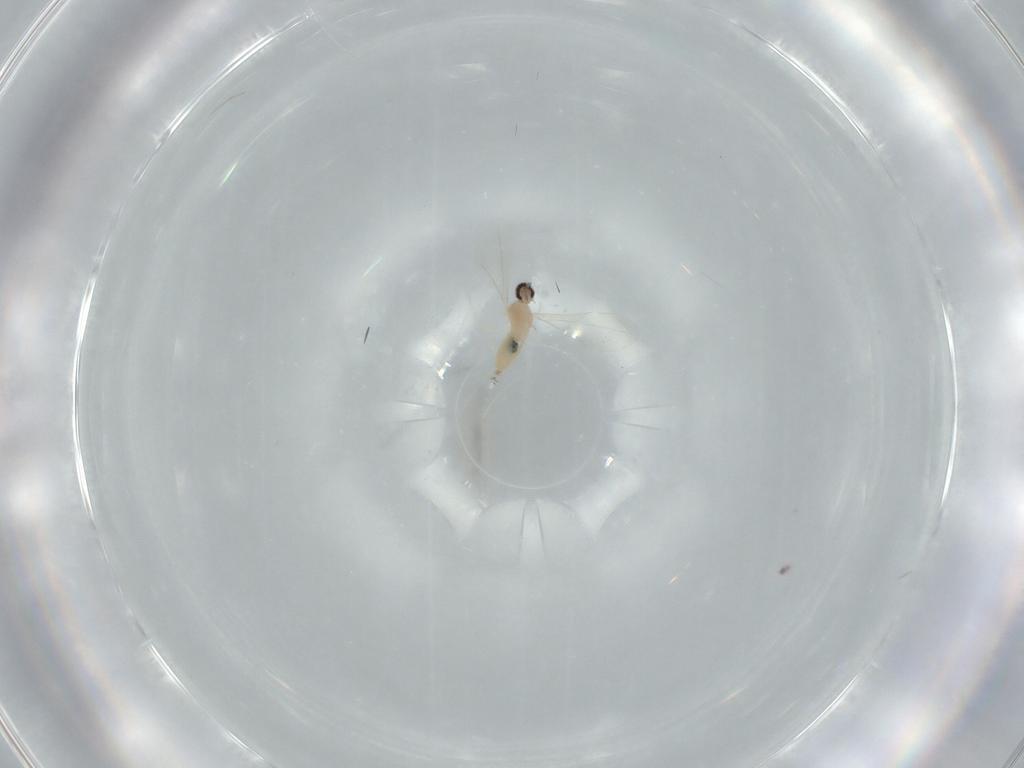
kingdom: Animalia
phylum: Arthropoda
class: Insecta
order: Diptera
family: Cecidomyiidae
